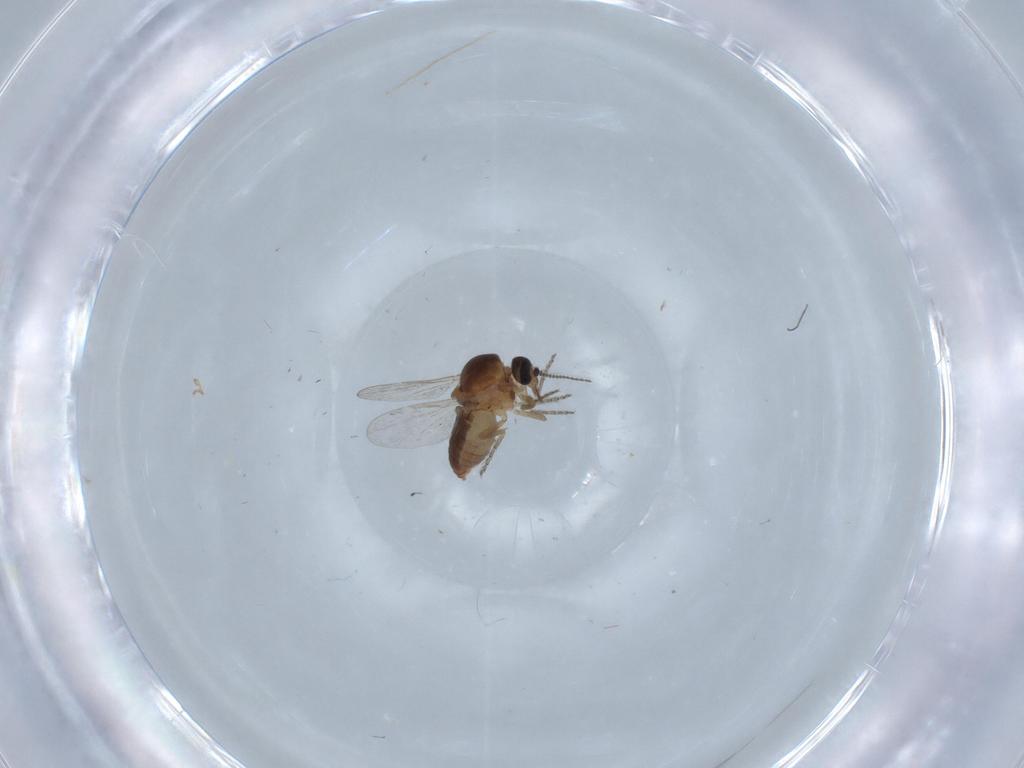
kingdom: Animalia
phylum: Arthropoda
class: Insecta
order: Diptera
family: Ceratopogonidae
